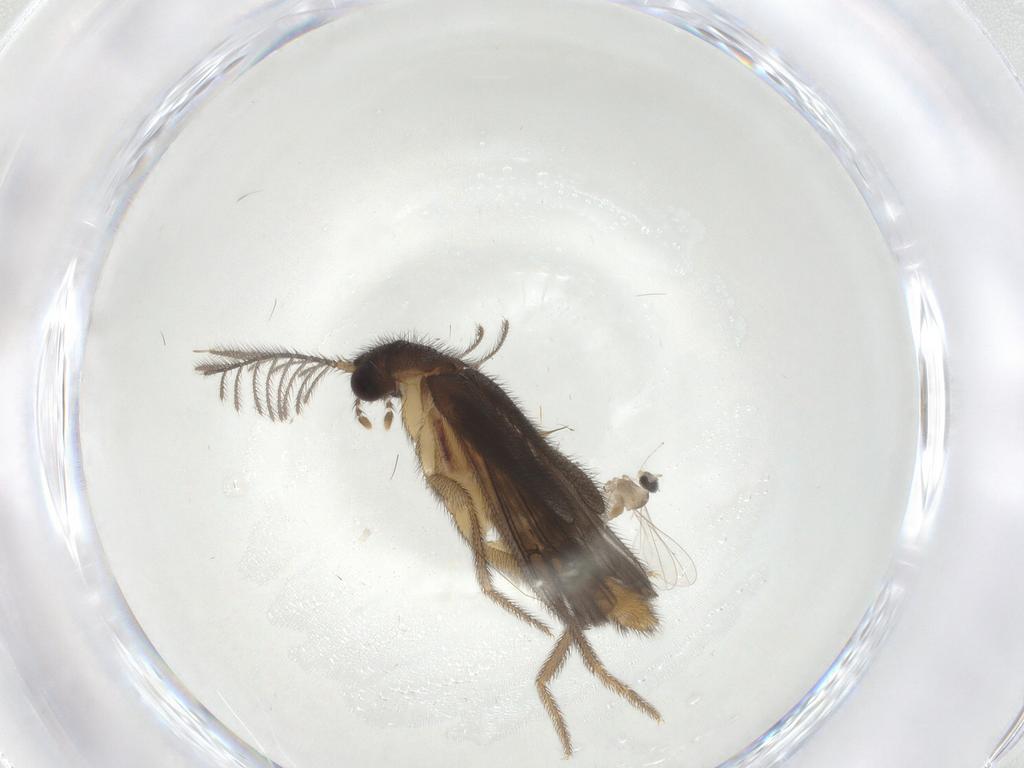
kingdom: Animalia
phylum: Arthropoda
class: Insecta
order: Diptera
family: Cecidomyiidae
